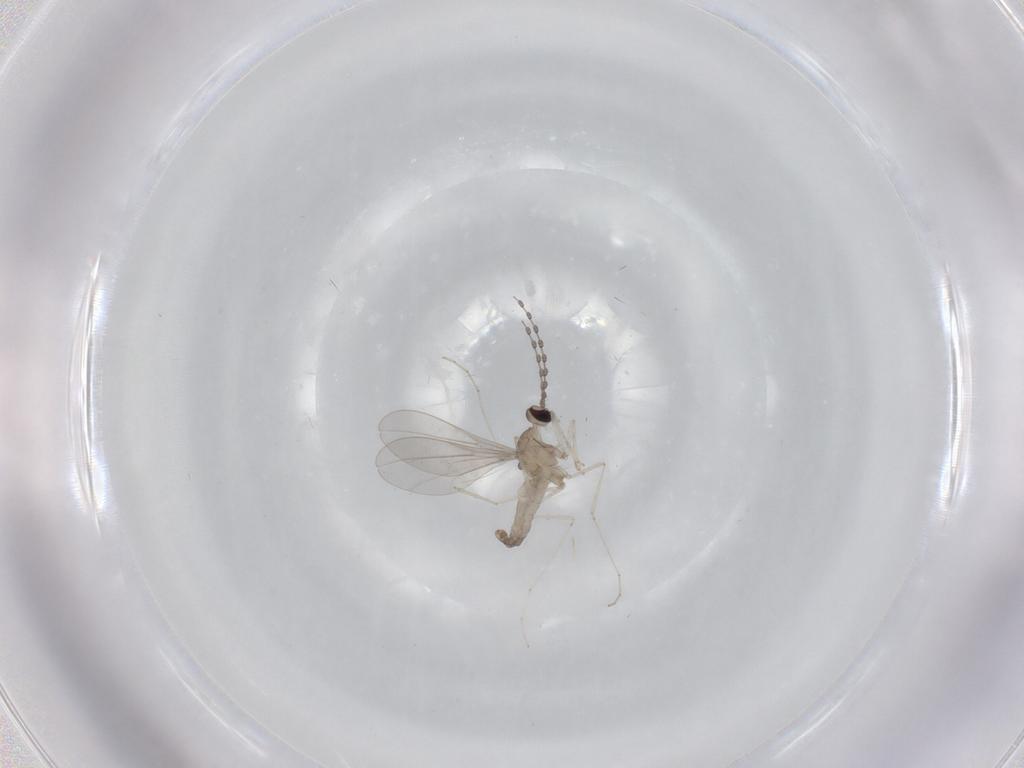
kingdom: Animalia
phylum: Arthropoda
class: Insecta
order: Diptera
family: Cecidomyiidae
